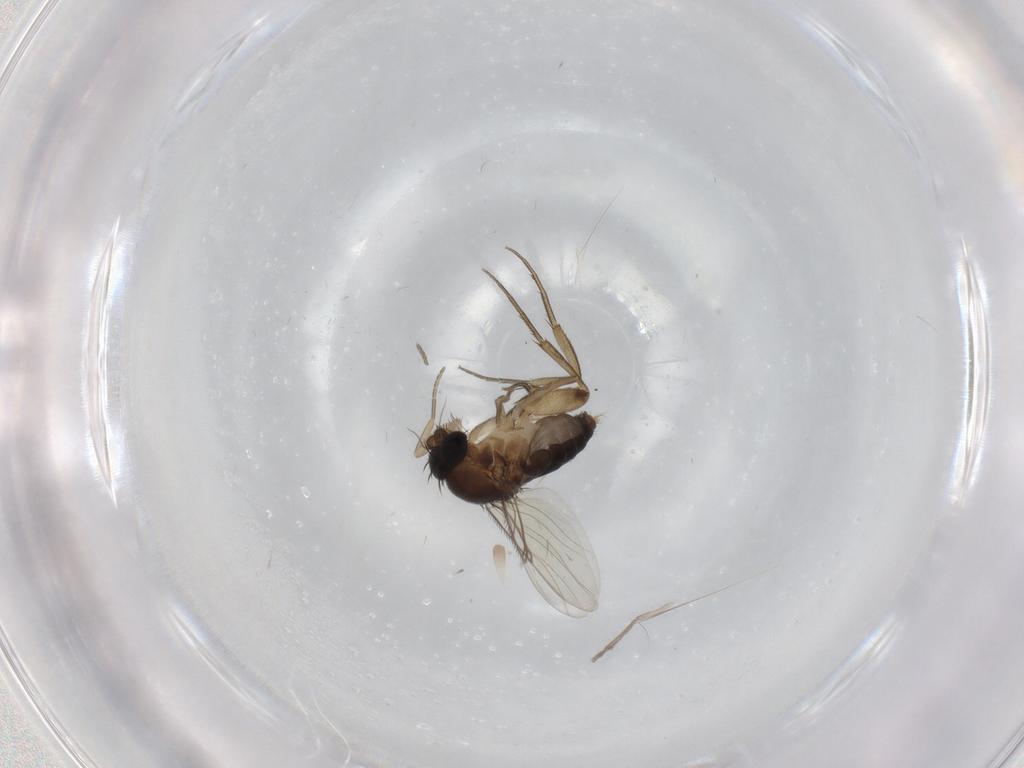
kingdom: Animalia
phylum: Arthropoda
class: Insecta
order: Diptera
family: Phoridae
